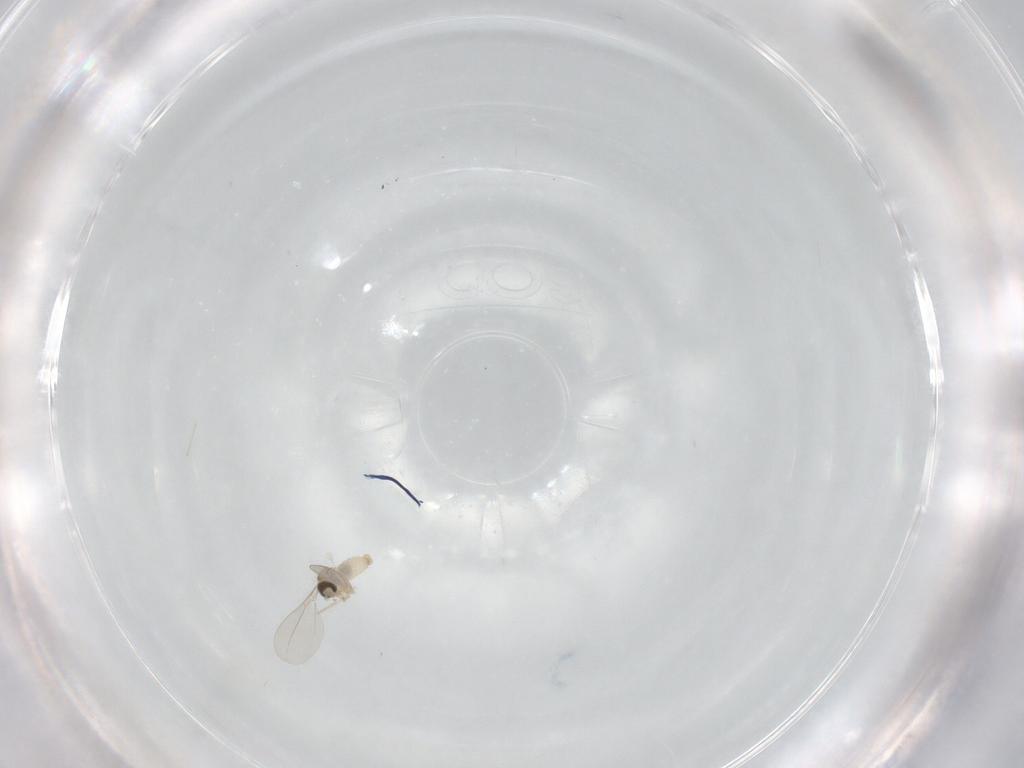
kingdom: Animalia
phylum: Arthropoda
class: Insecta
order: Diptera
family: Cecidomyiidae
